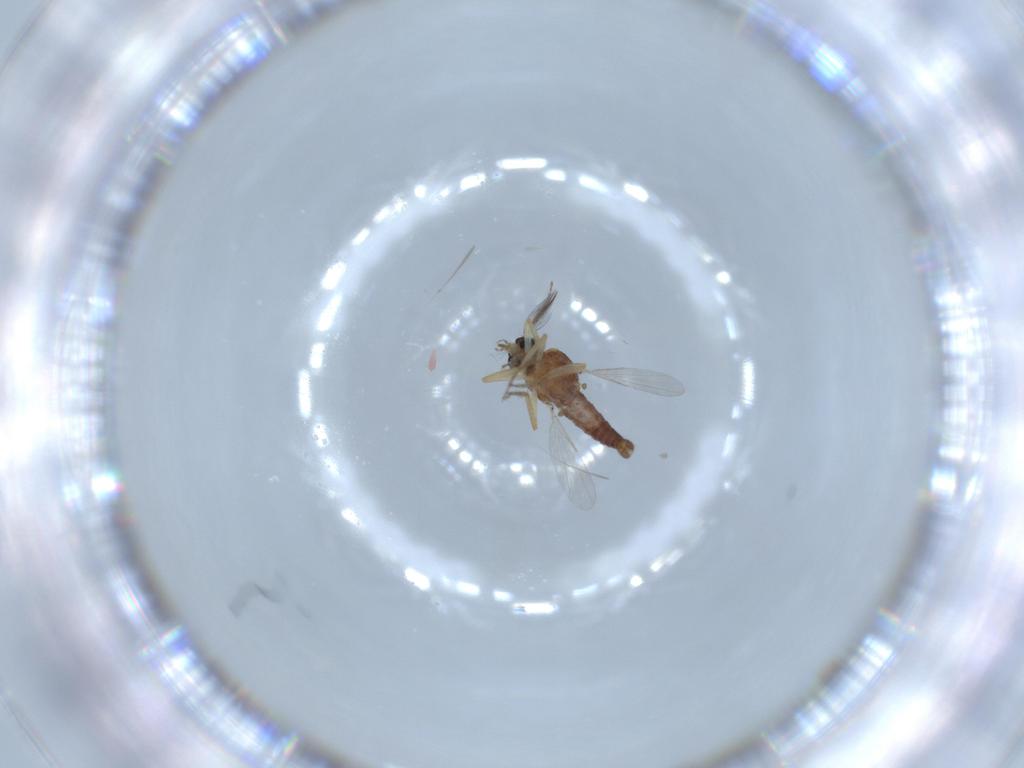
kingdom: Animalia
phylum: Arthropoda
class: Insecta
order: Diptera
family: Ceratopogonidae
